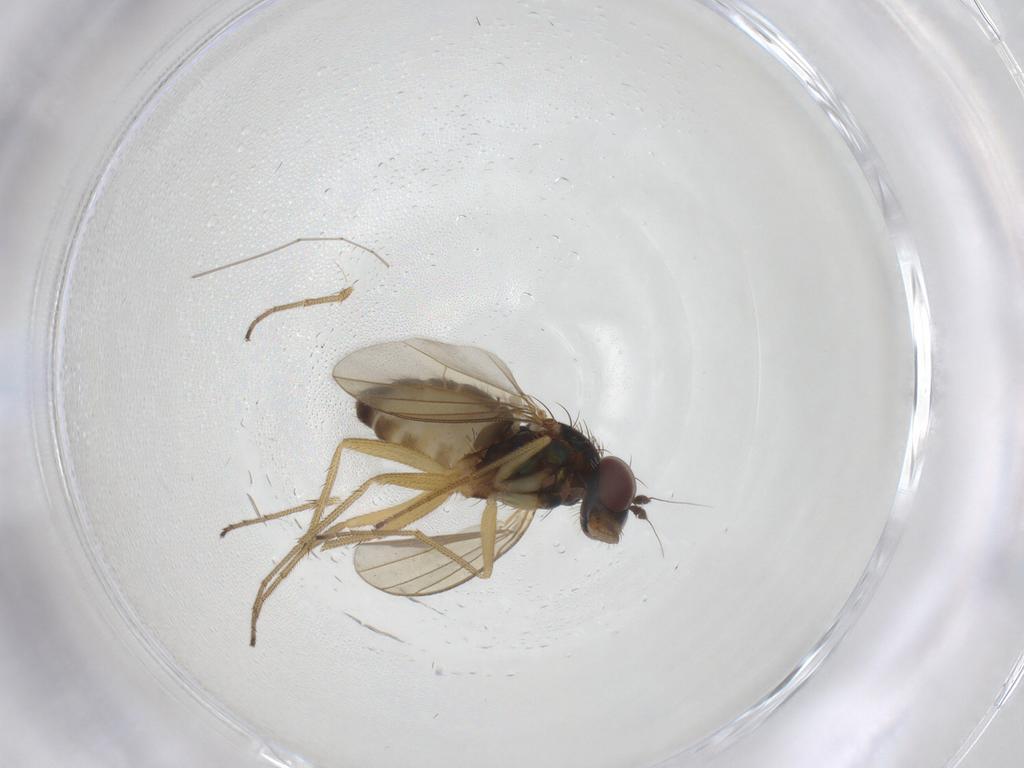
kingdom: Animalia
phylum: Arthropoda
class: Insecta
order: Diptera
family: Dolichopodidae
